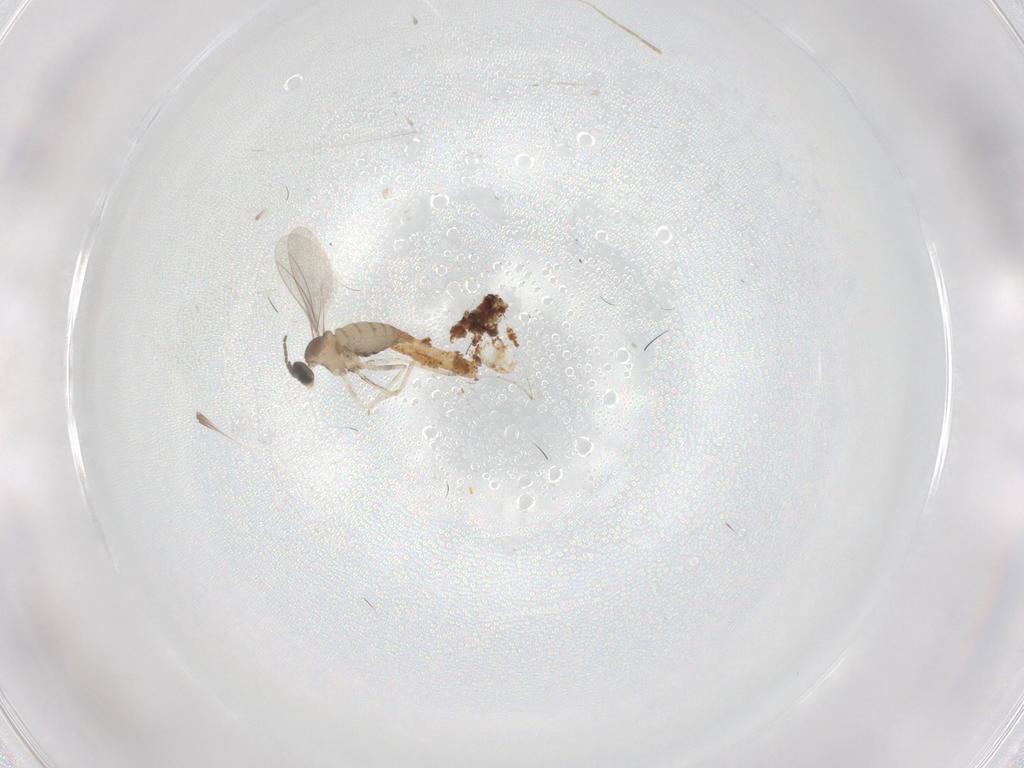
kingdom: Animalia
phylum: Arthropoda
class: Insecta
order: Diptera
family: Cecidomyiidae
